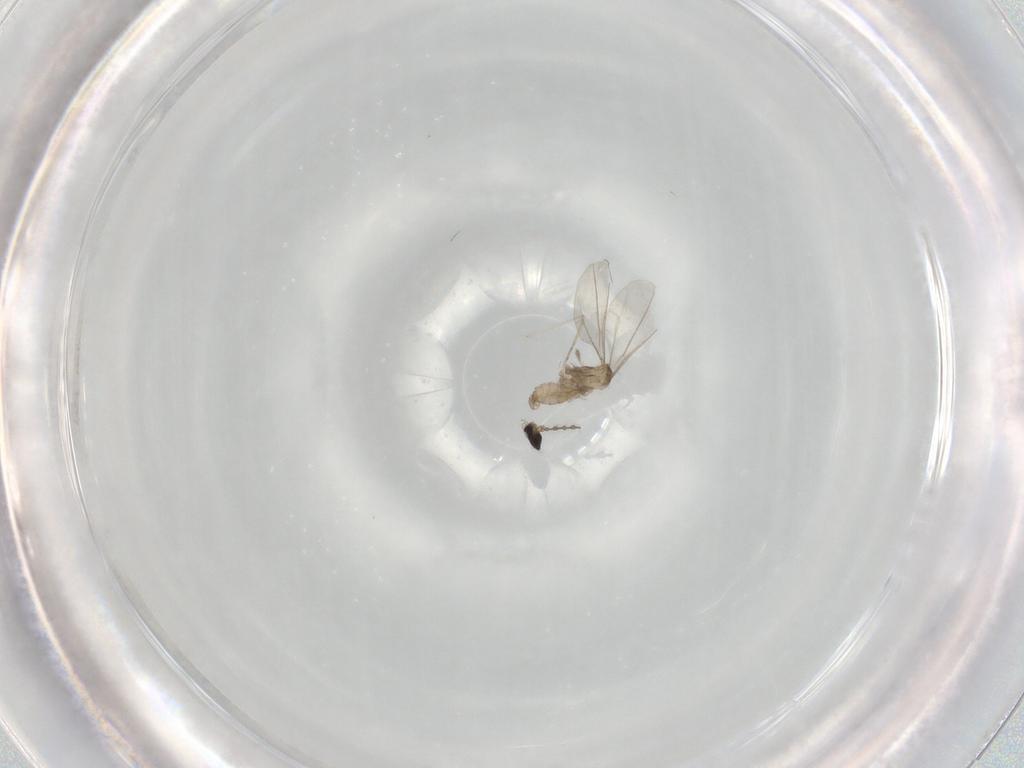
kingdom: Animalia
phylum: Arthropoda
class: Insecta
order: Diptera
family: Cecidomyiidae
